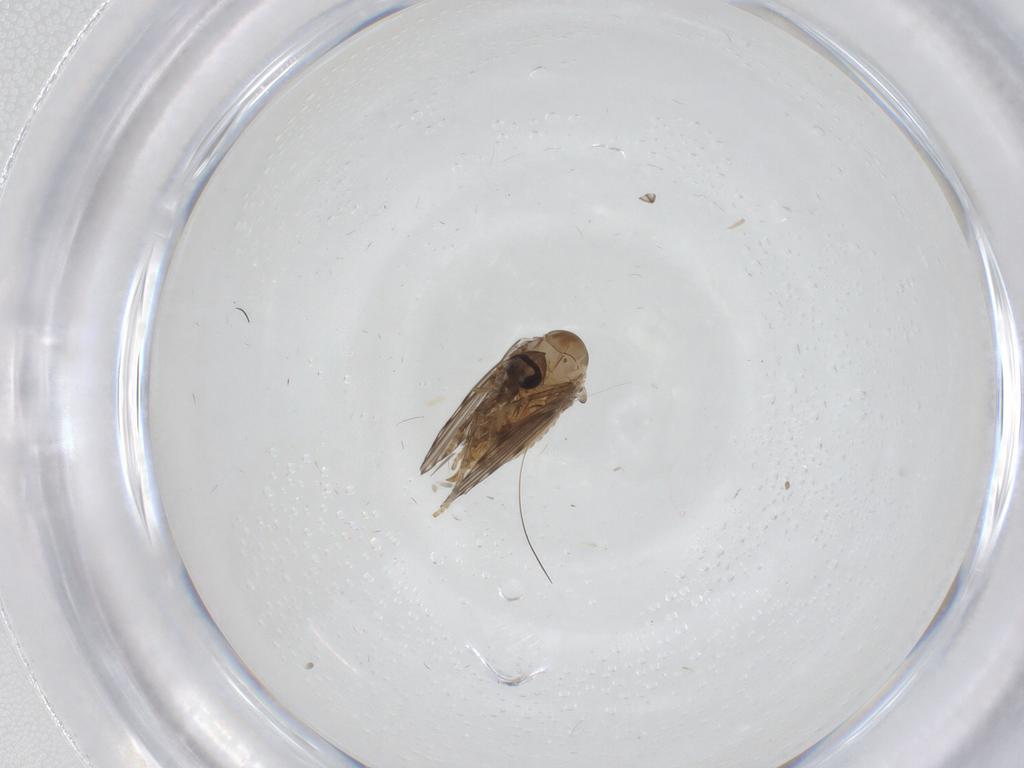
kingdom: Animalia
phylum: Arthropoda
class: Insecta
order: Diptera
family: Psychodidae
